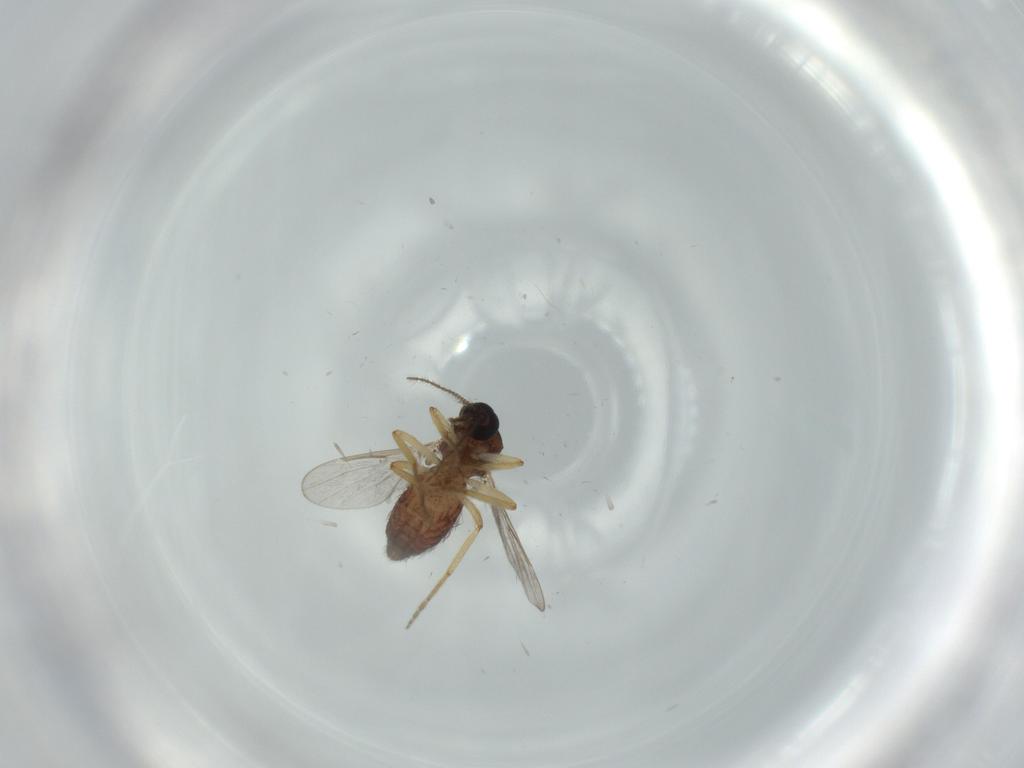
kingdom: Animalia
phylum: Arthropoda
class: Insecta
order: Diptera
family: Ceratopogonidae
